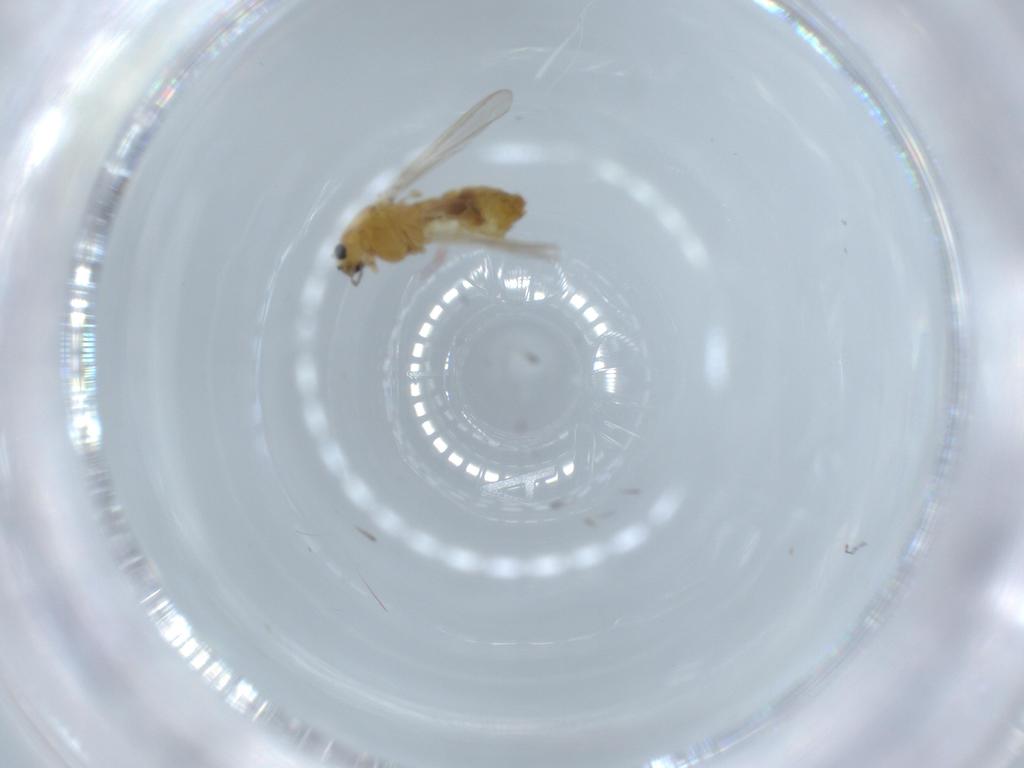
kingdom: Animalia
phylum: Arthropoda
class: Insecta
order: Diptera
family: Chironomidae
